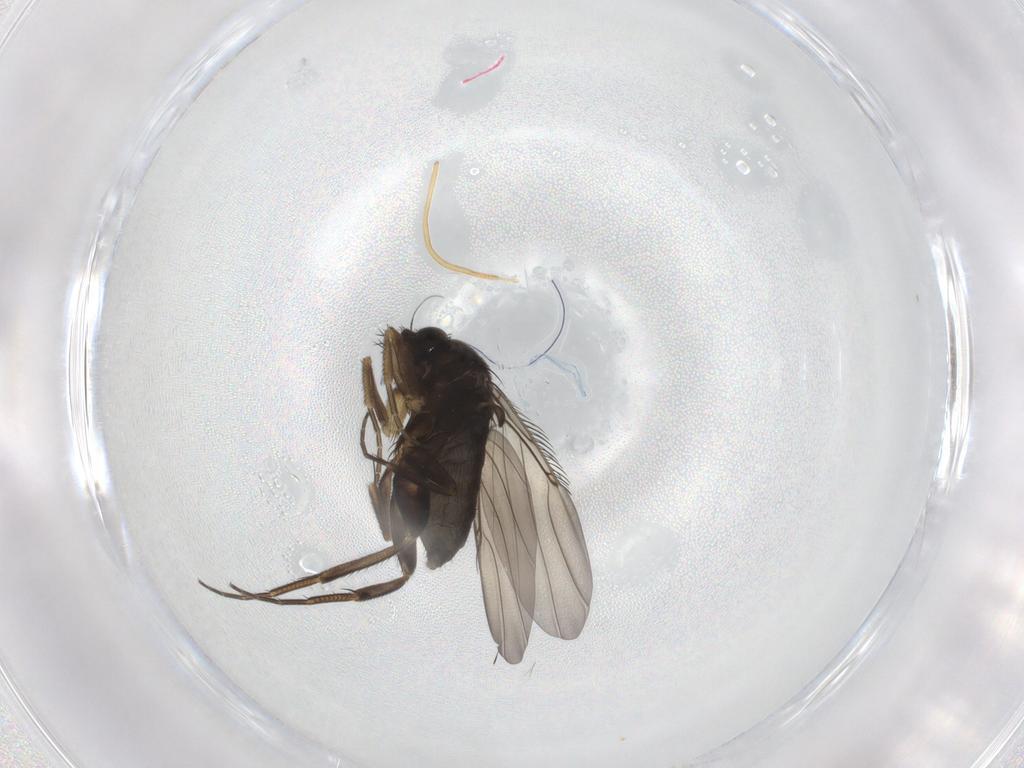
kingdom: Animalia
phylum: Arthropoda
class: Insecta
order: Diptera
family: Phoridae
